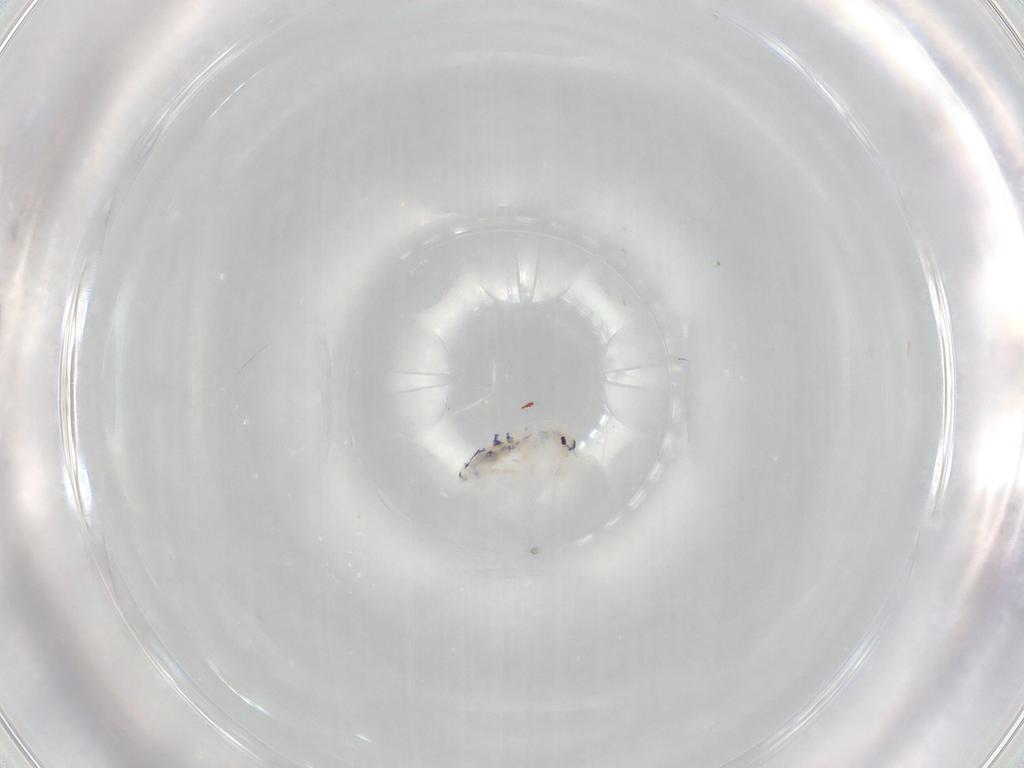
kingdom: Animalia
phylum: Arthropoda
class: Collembola
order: Entomobryomorpha
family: Entomobryidae
